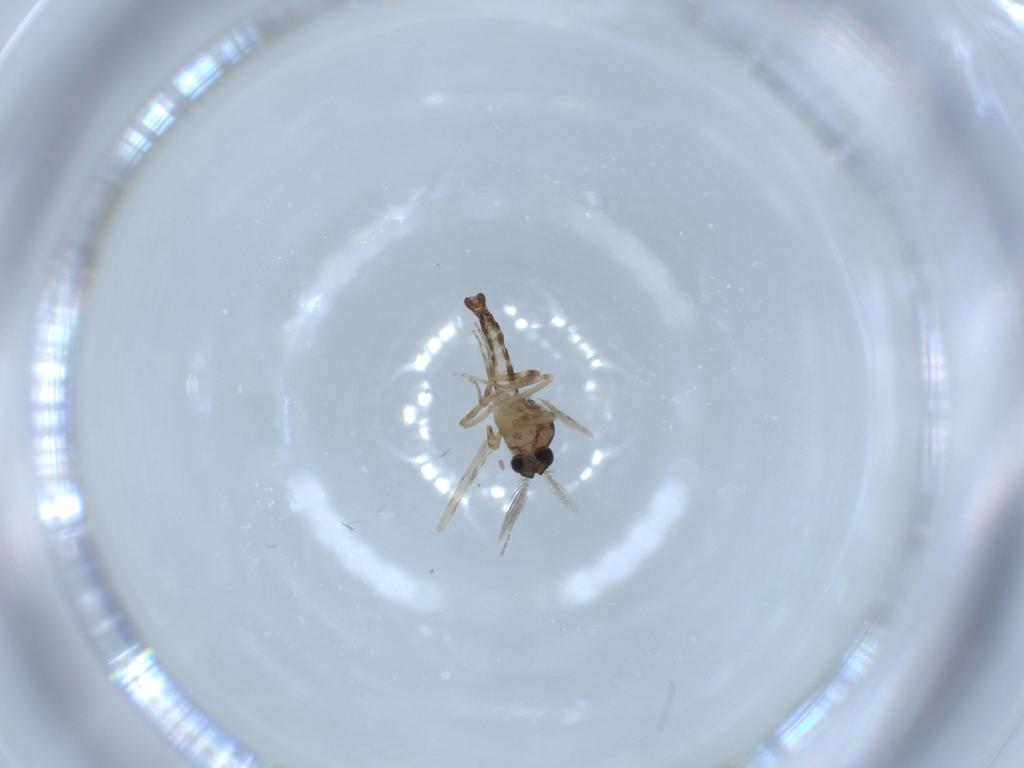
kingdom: Animalia
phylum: Arthropoda
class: Insecta
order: Diptera
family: Ceratopogonidae
